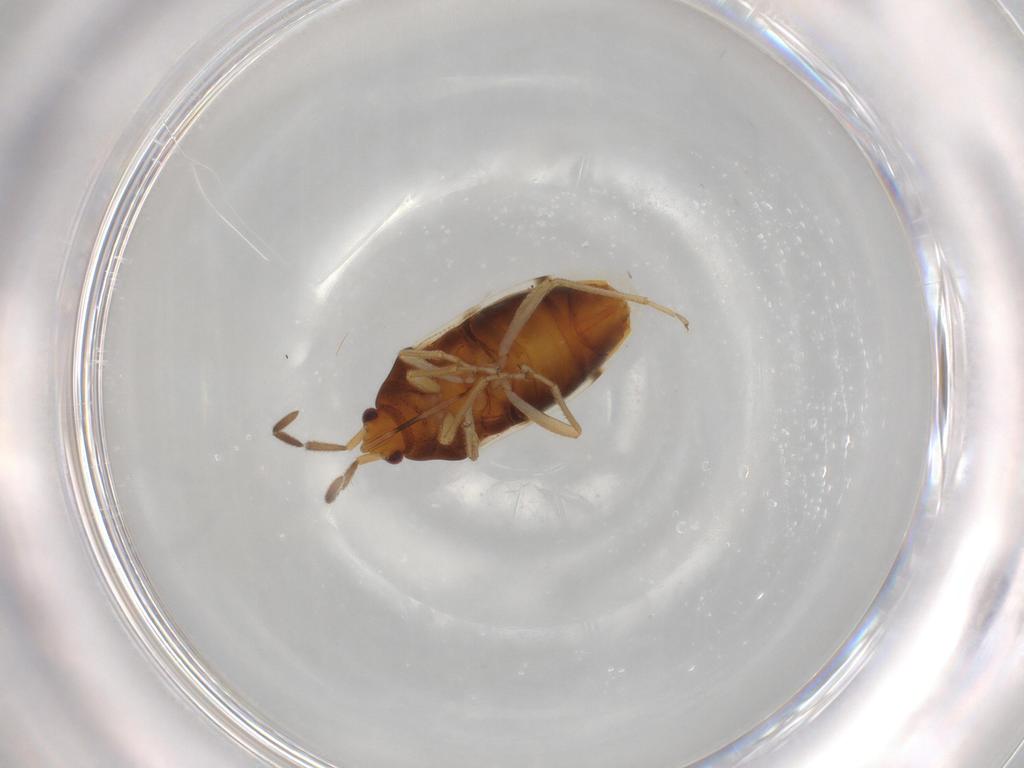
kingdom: Animalia
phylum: Arthropoda
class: Insecta
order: Hemiptera
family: Rhyparochromidae
